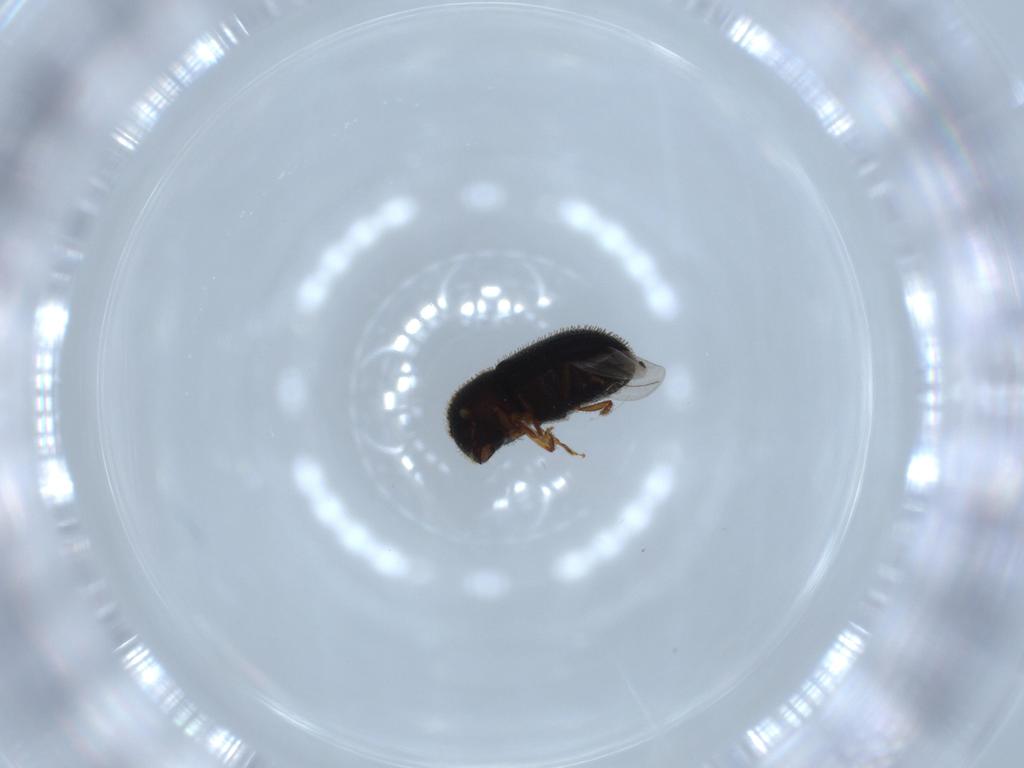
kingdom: Animalia
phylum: Arthropoda
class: Insecta
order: Coleoptera
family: Curculionidae
